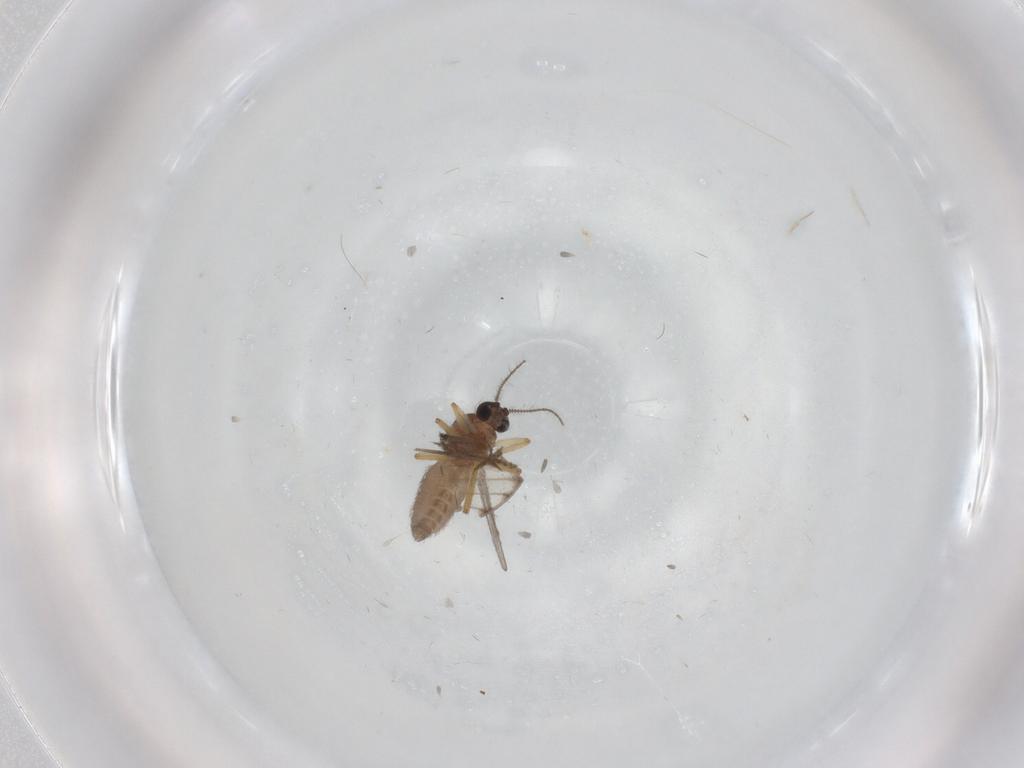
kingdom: Animalia
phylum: Arthropoda
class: Insecta
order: Diptera
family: Ceratopogonidae
